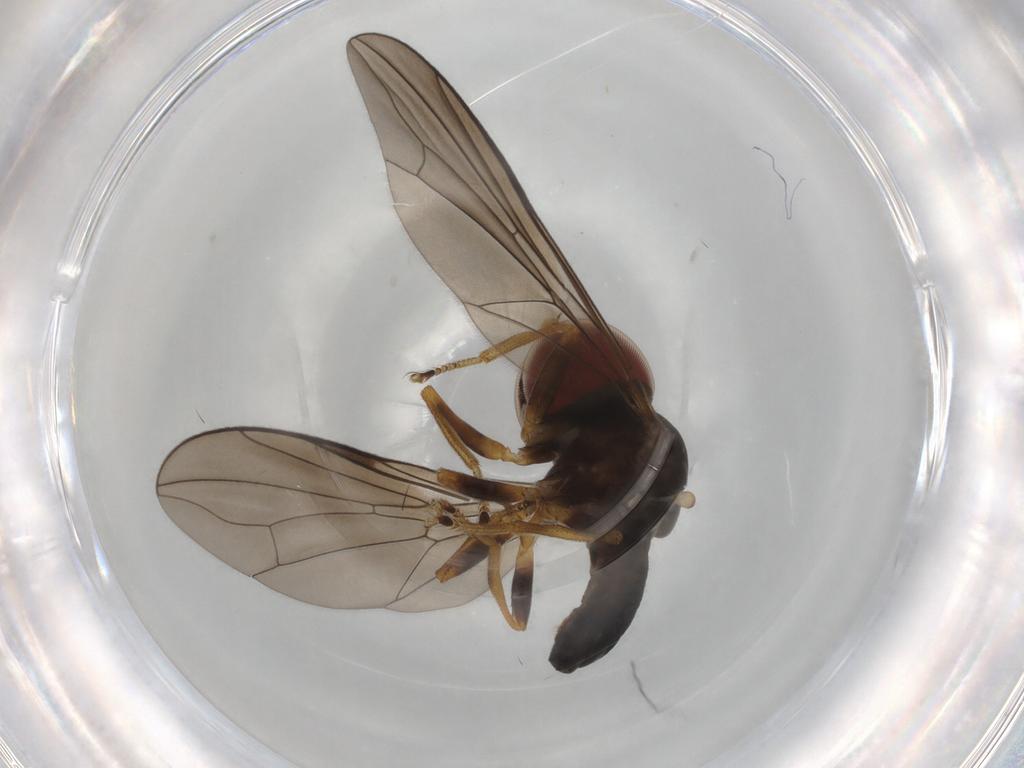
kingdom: Animalia
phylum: Arthropoda
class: Insecta
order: Diptera
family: Pipunculidae
